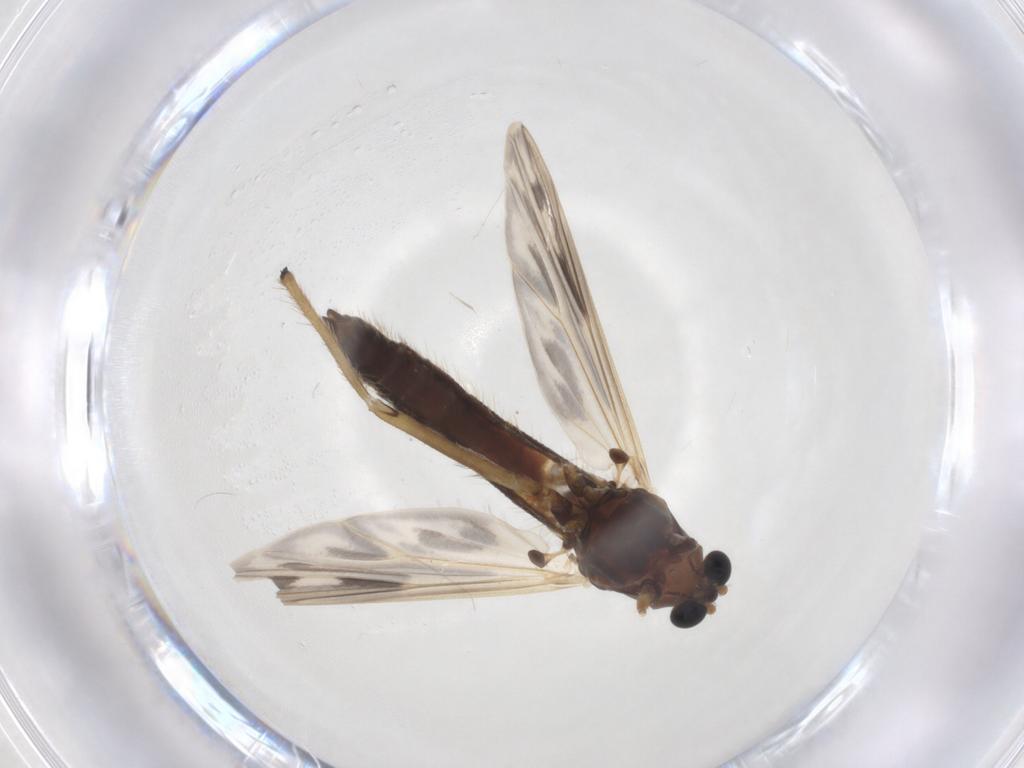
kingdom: Animalia
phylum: Arthropoda
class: Insecta
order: Diptera
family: Chironomidae
